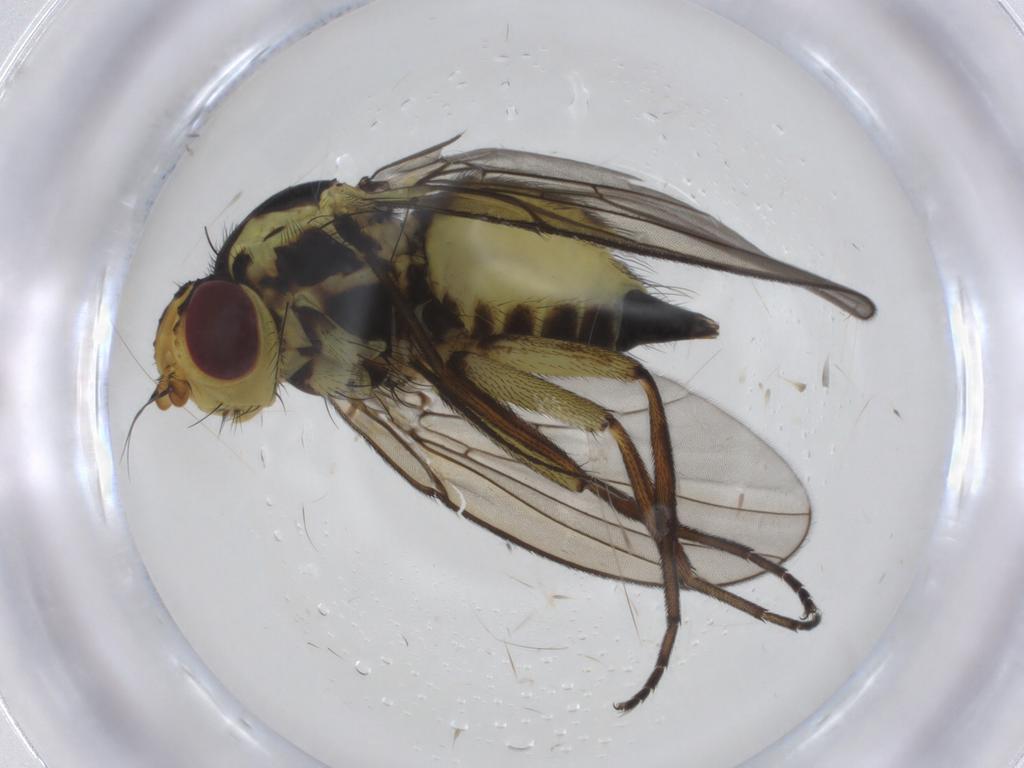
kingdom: Animalia
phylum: Arthropoda
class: Insecta
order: Diptera
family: Agromyzidae
